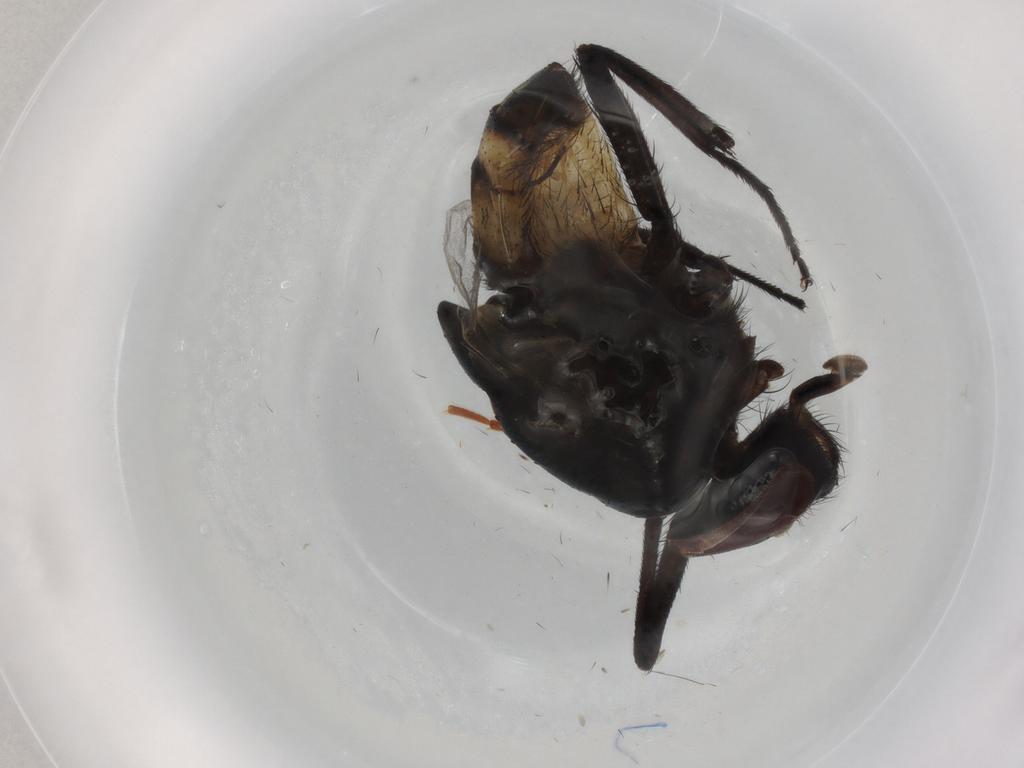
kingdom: Animalia
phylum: Arthropoda
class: Insecta
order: Diptera
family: Muscidae
